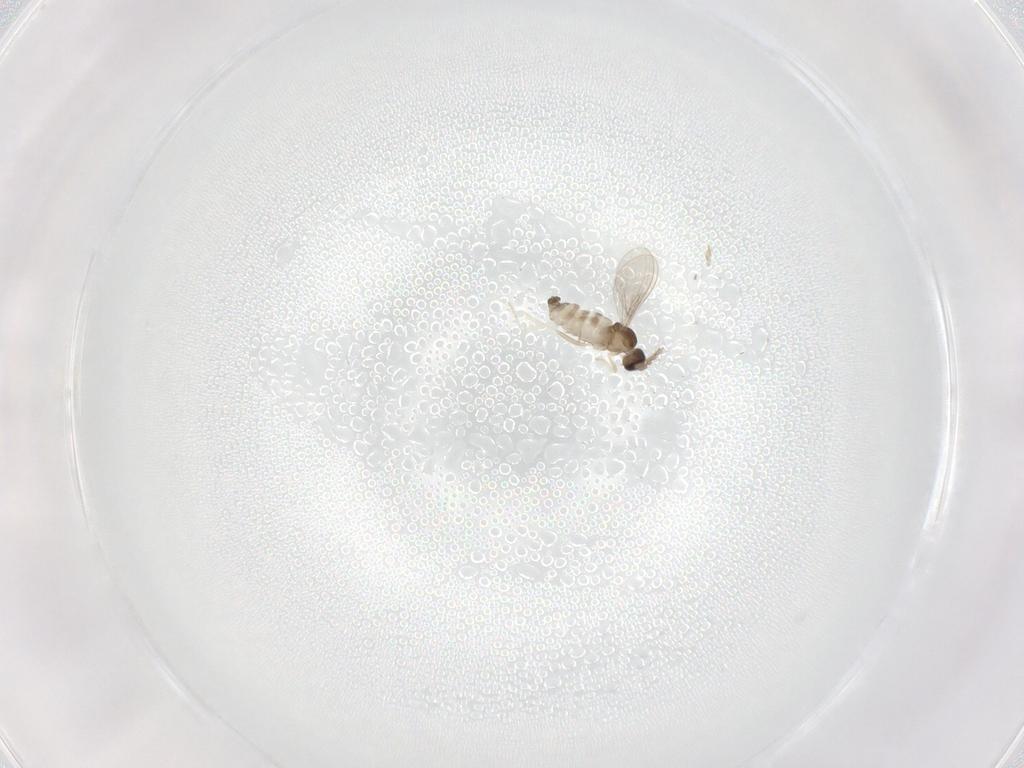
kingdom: Animalia
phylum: Arthropoda
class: Insecta
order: Diptera
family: Cecidomyiidae
